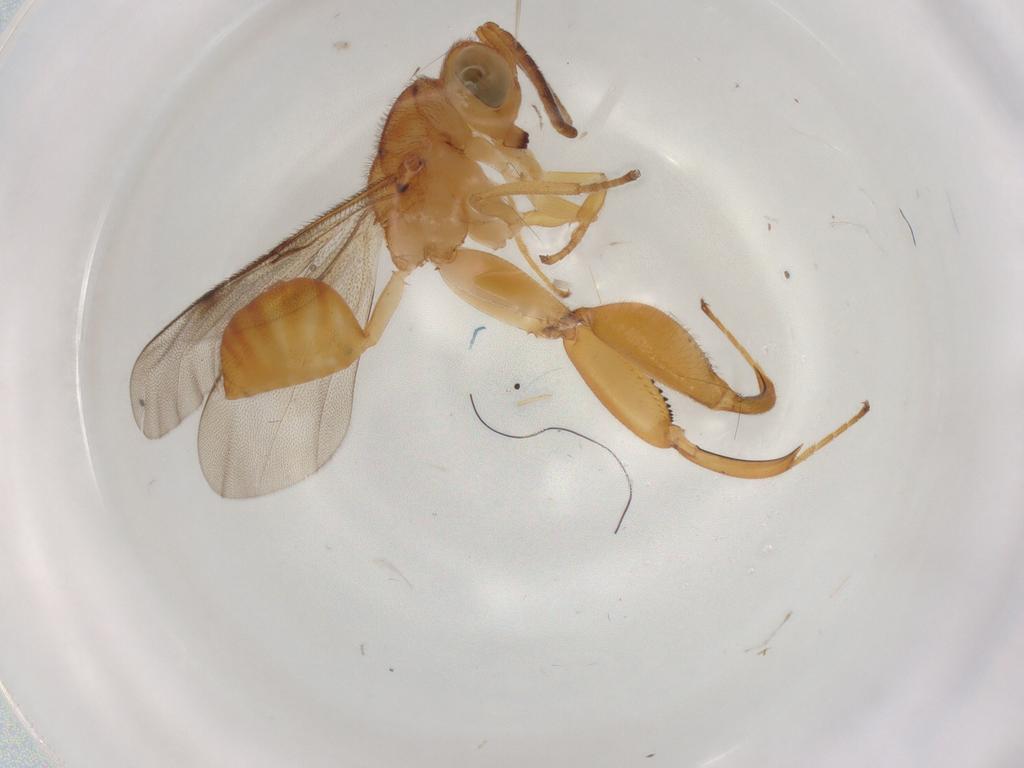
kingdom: Animalia
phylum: Arthropoda
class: Insecta
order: Hymenoptera
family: Chalcididae
